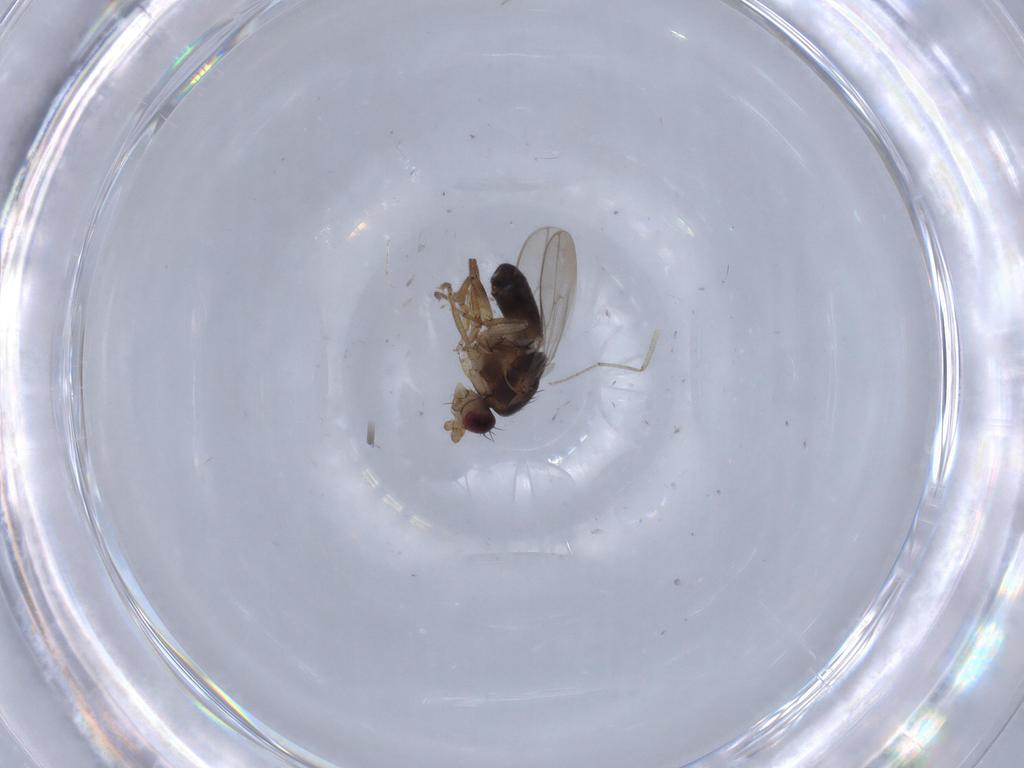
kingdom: Animalia
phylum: Arthropoda
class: Insecta
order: Diptera
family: Chironomidae
